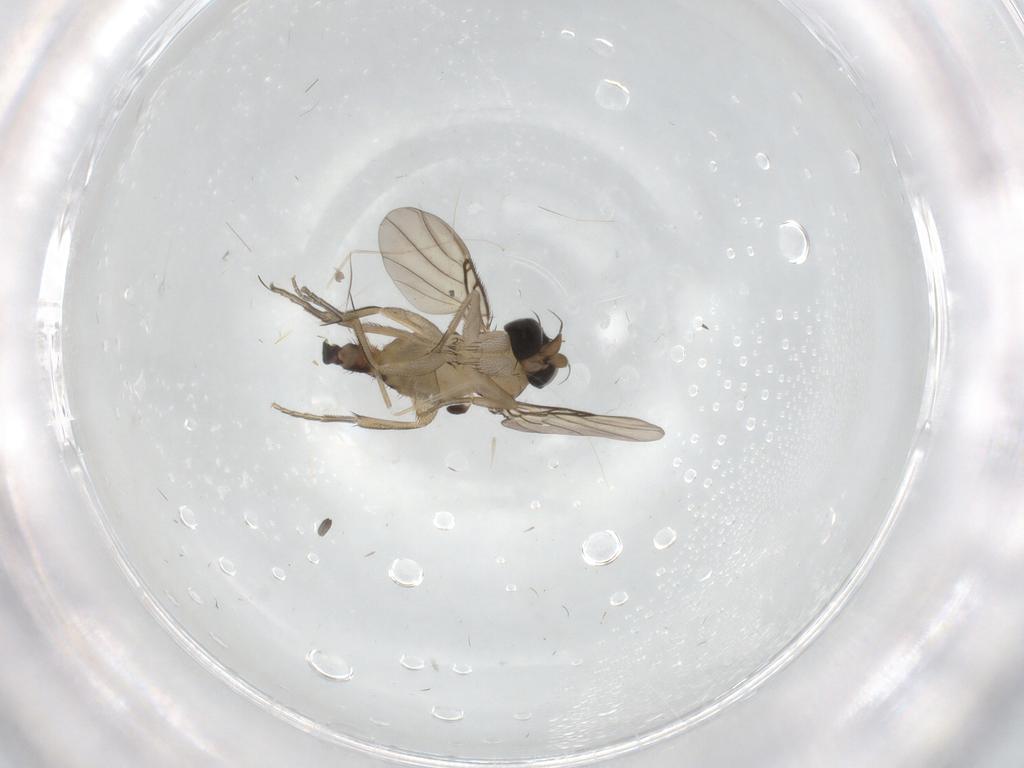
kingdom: Animalia
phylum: Arthropoda
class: Insecta
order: Diptera
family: Phoridae
